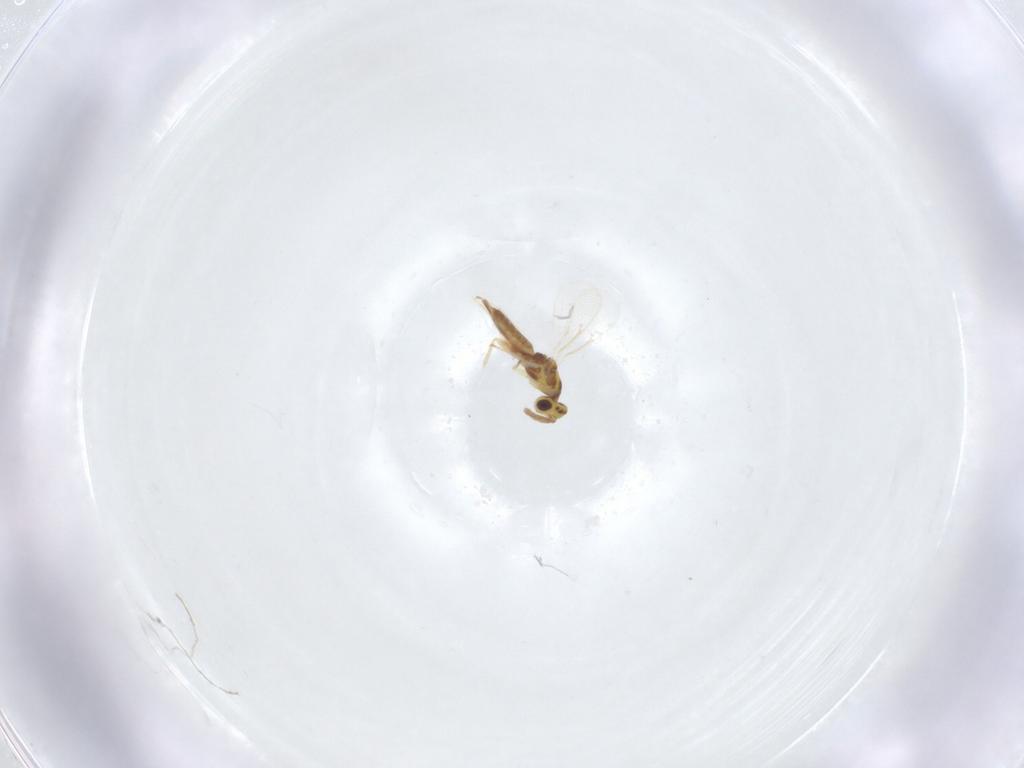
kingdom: Animalia
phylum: Arthropoda
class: Insecta
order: Hymenoptera
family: Eulophidae
